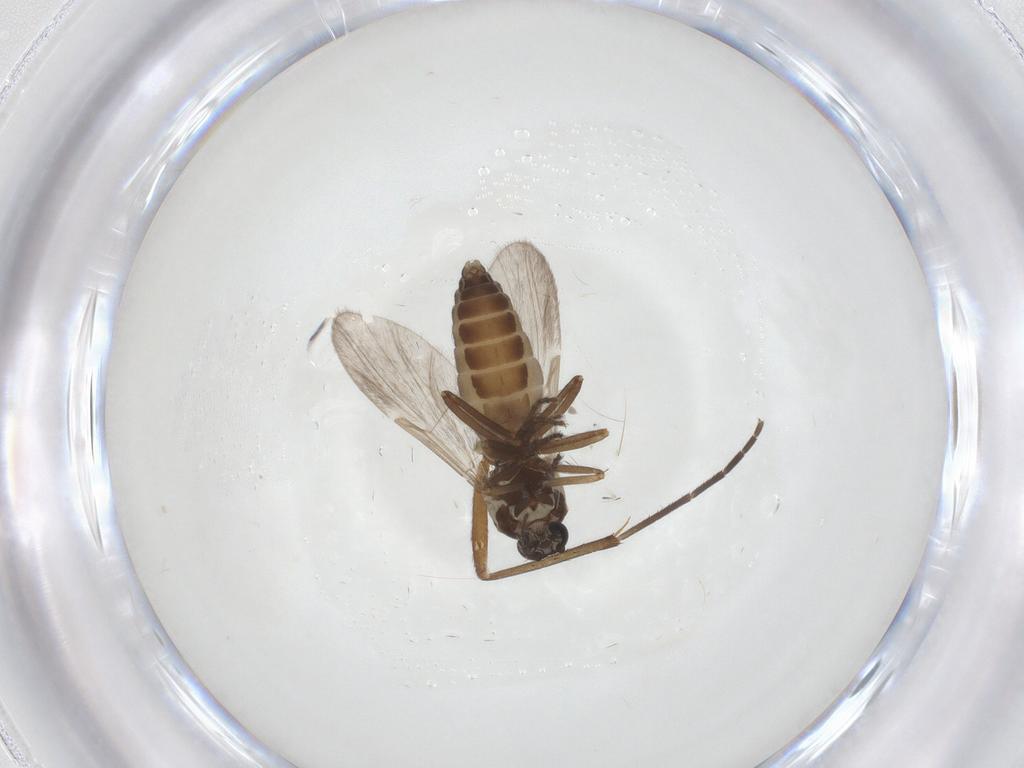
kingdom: Animalia
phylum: Arthropoda
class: Insecta
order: Diptera
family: Ceratopogonidae
